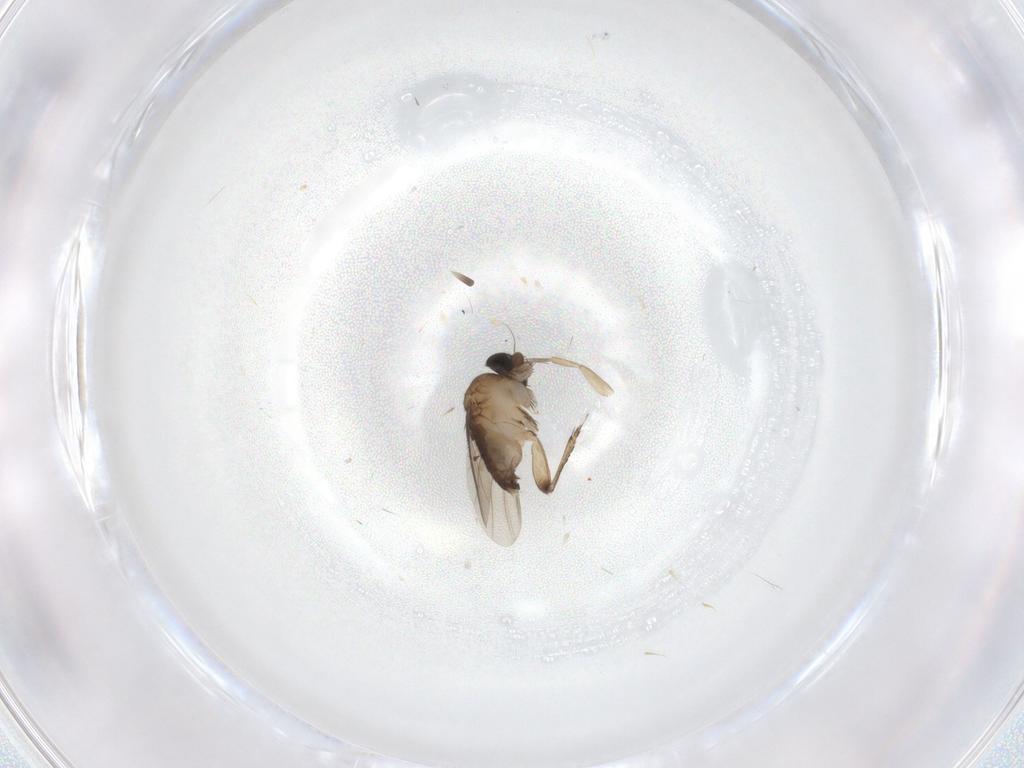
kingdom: Animalia
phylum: Arthropoda
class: Insecta
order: Diptera
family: Phoridae
